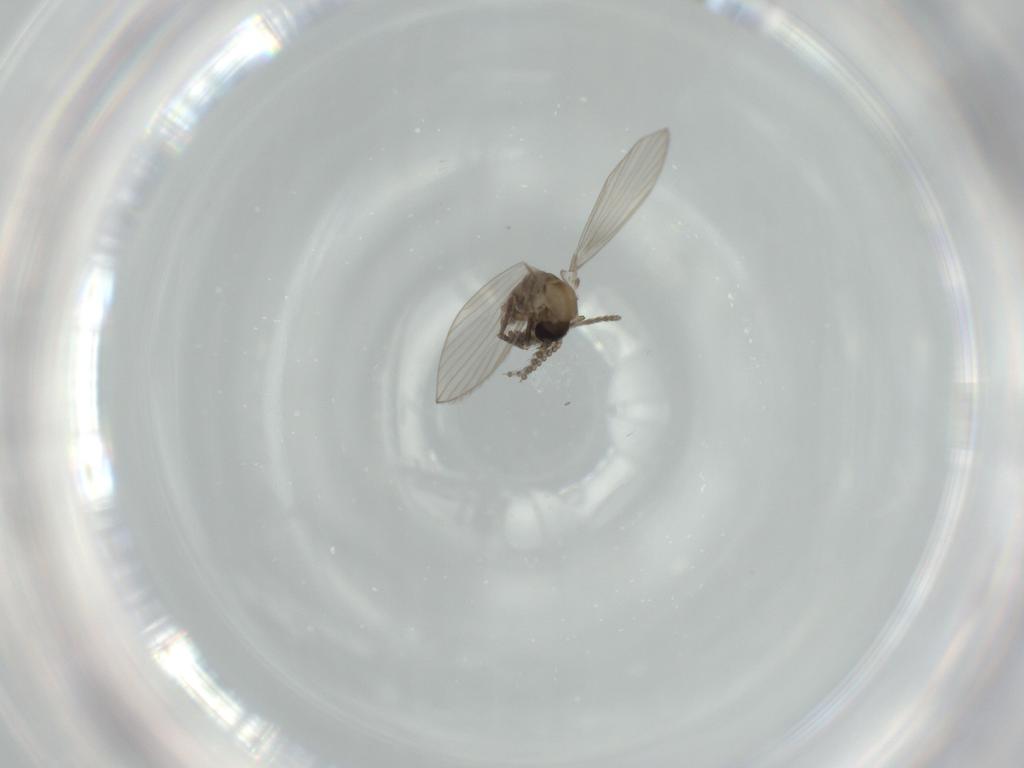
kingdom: Animalia
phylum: Arthropoda
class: Insecta
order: Diptera
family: Psychodidae
